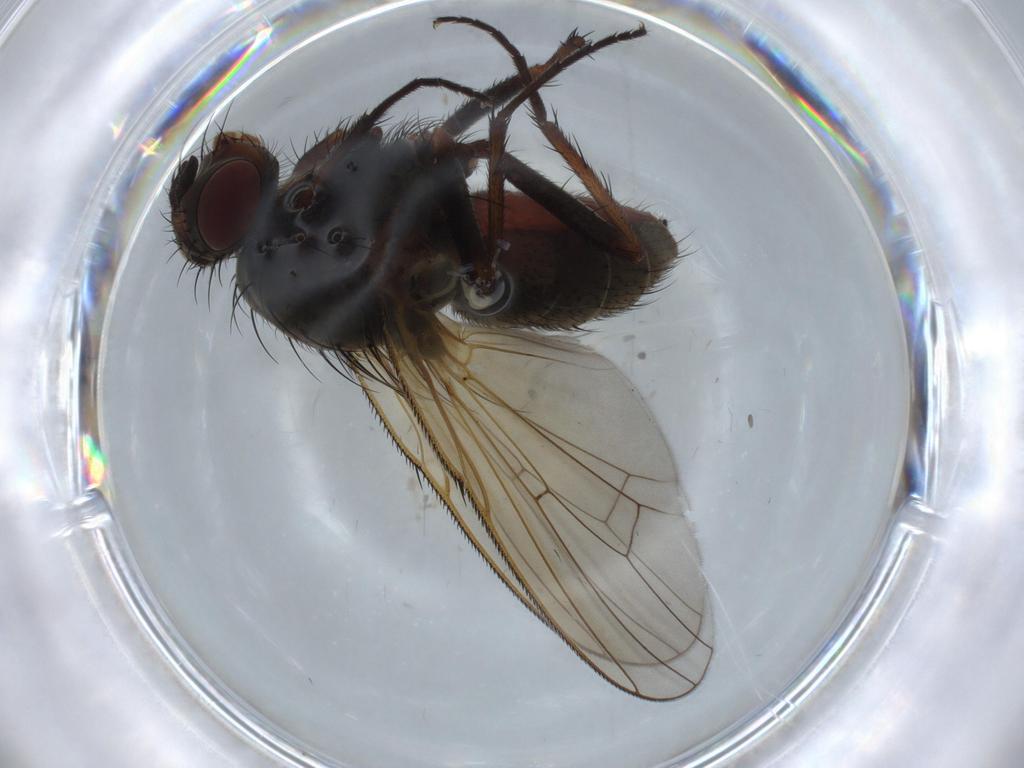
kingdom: Animalia
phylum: Arthropoda
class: Insecta
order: Diptera
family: Anthomyiidae
